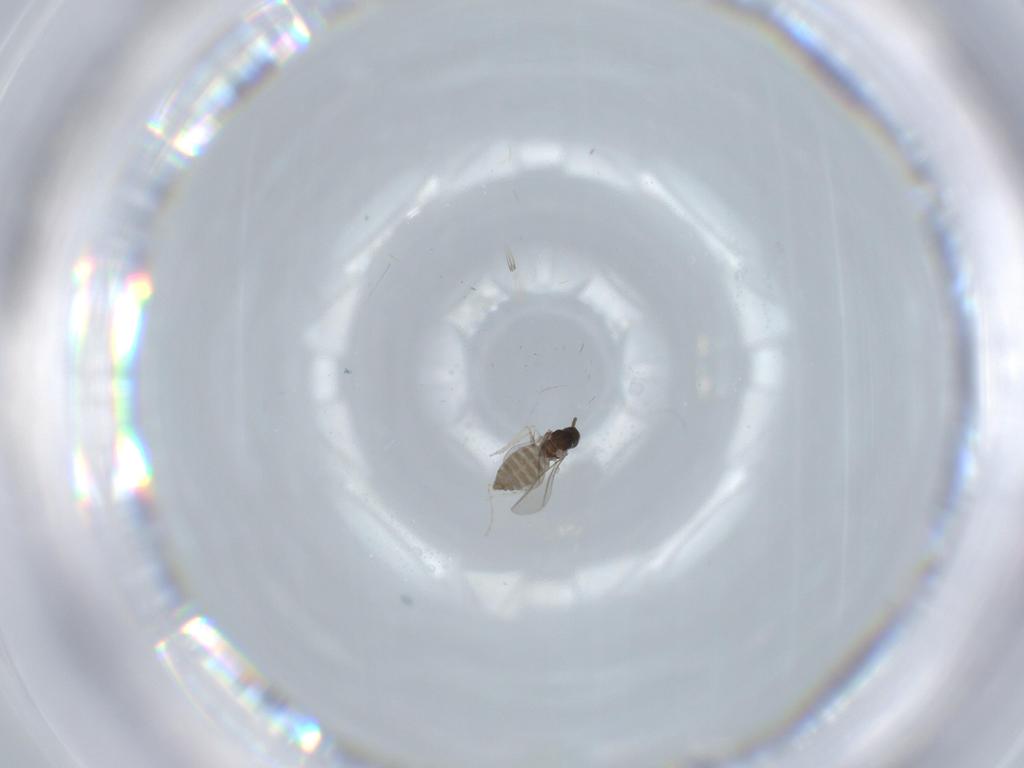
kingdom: Animalia
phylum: Arthropoda
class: Insecta
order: Diptera
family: Cecidomyiidae
